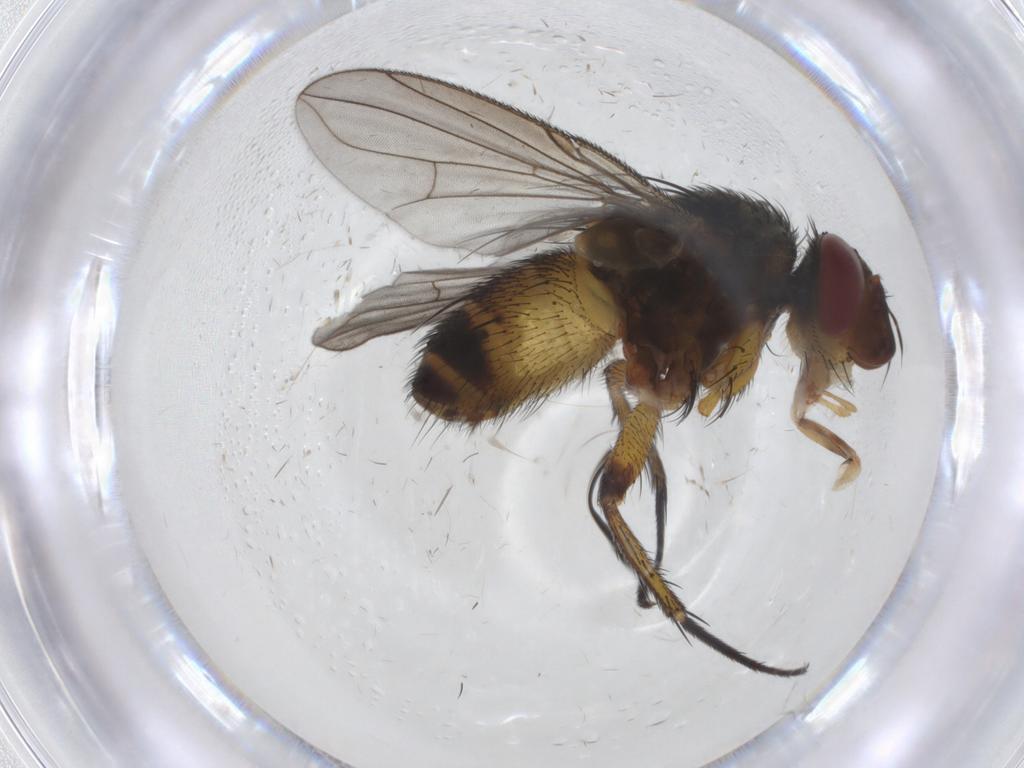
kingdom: Animalia
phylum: Arthropoda
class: Insecta
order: Diptera
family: Tachinidae
